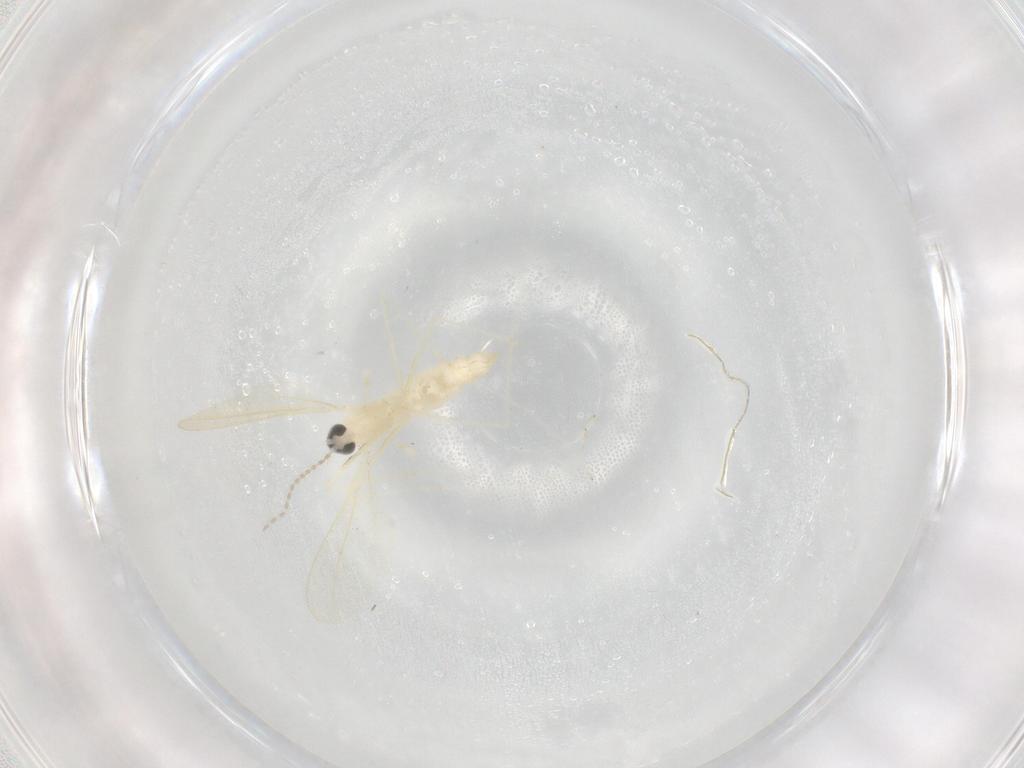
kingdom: Animalia
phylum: Arthropoda
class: Insecta
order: Diptera
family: Cecidomyiidae
